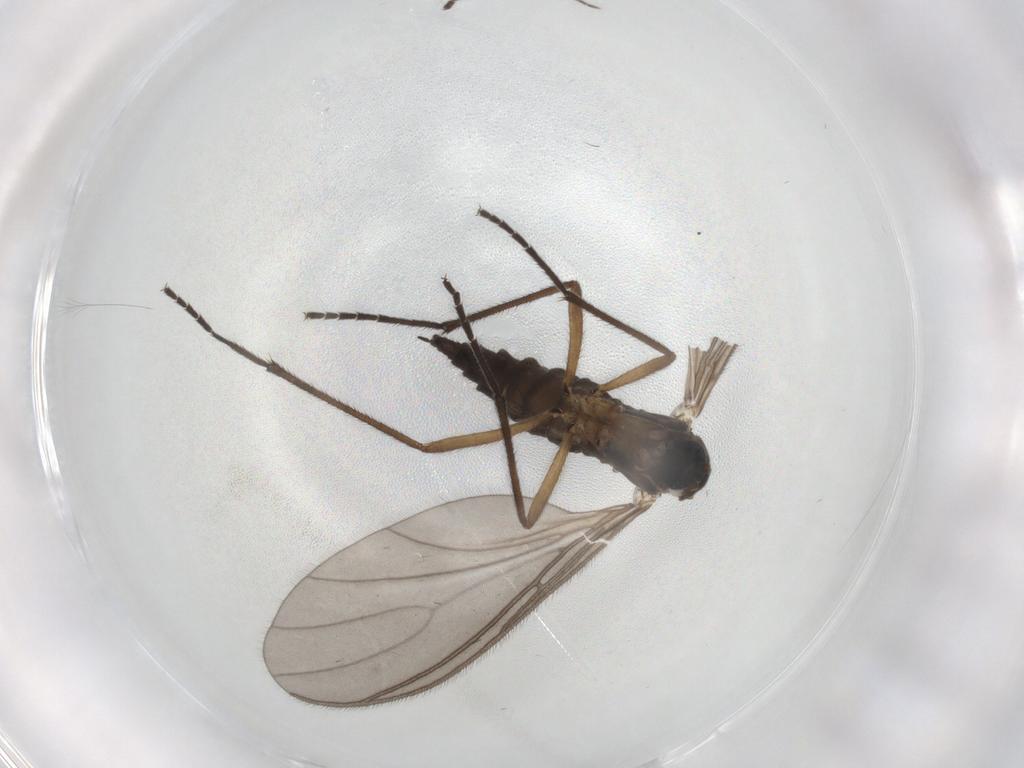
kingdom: Animalia
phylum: Arthropoda
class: Insecta
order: Diptera
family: Sciaridae
